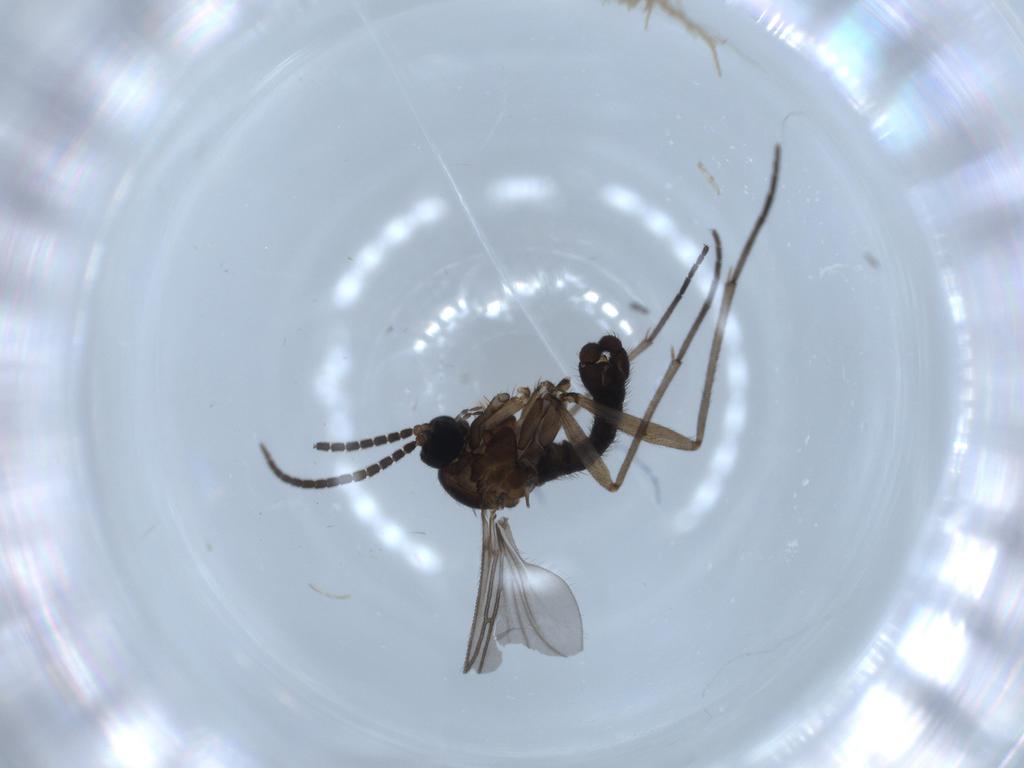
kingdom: Animalia
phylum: Arthropoda
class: Insecta
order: Diptera
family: Sciaridae
